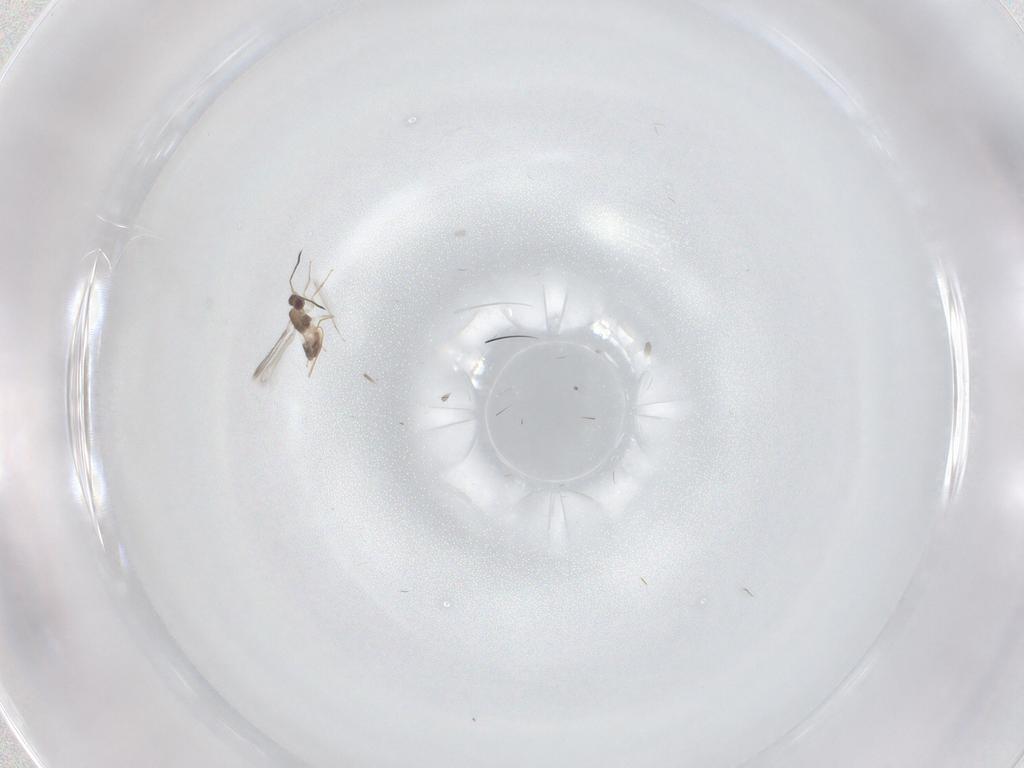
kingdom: Animalia
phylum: Arthropoda
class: Insecta
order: Hymenoptera
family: Mymaridae
